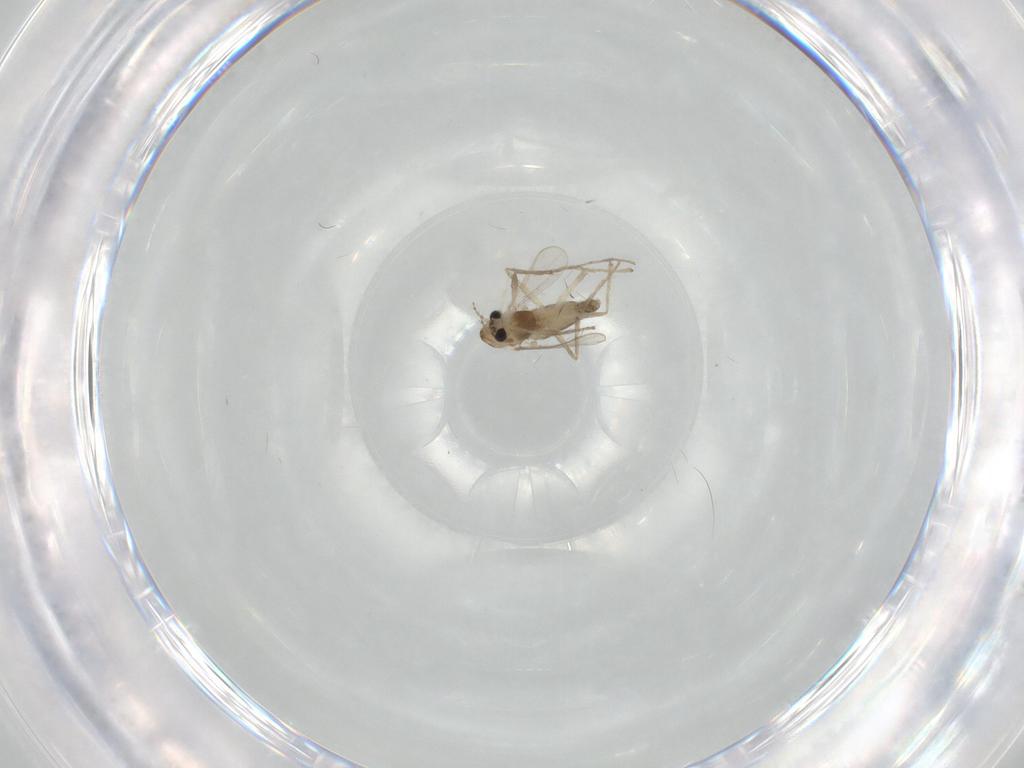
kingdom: Animalia
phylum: Arthropoda
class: Insecta
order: Diptera
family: Chironomidae
